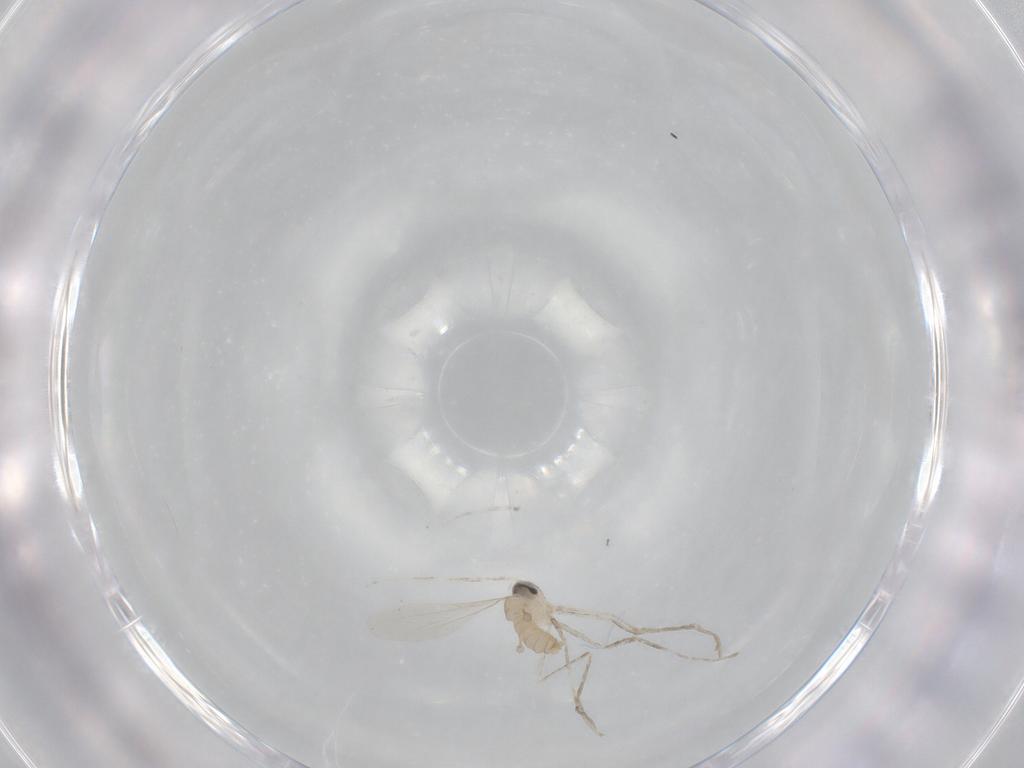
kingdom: Animalia
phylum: Arthropoda
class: Insecta
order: Diptera
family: Cecidomyiidae
